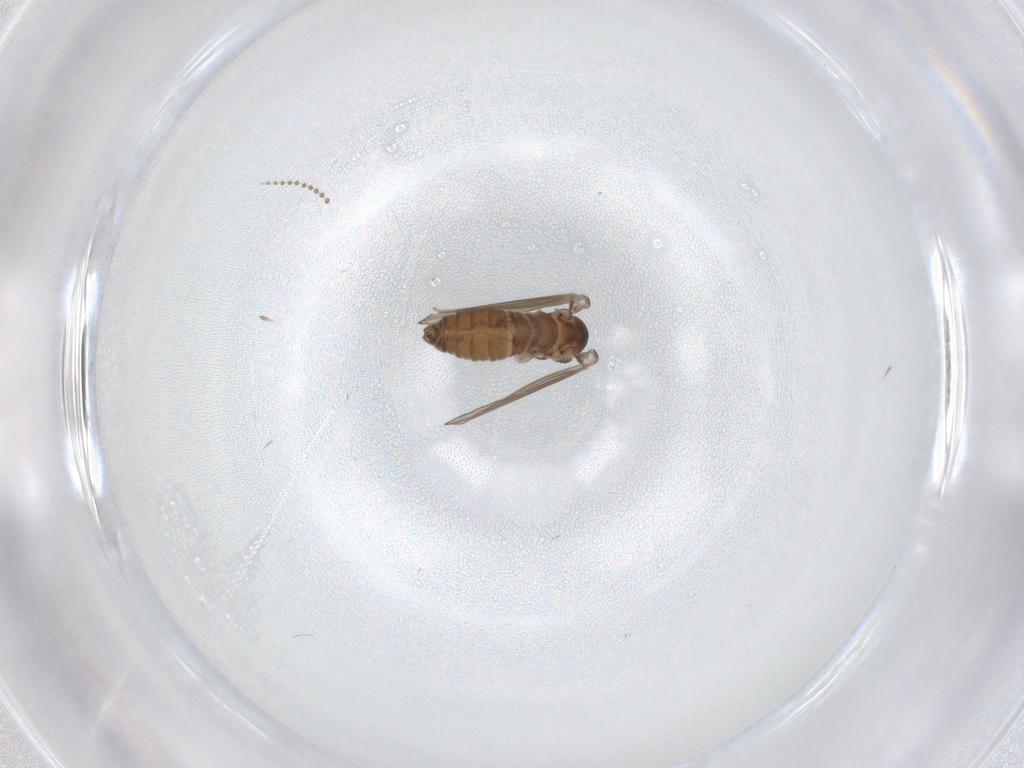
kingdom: Animalia
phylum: Arthropoda
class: Insecta
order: Diptera
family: Psychodidae
